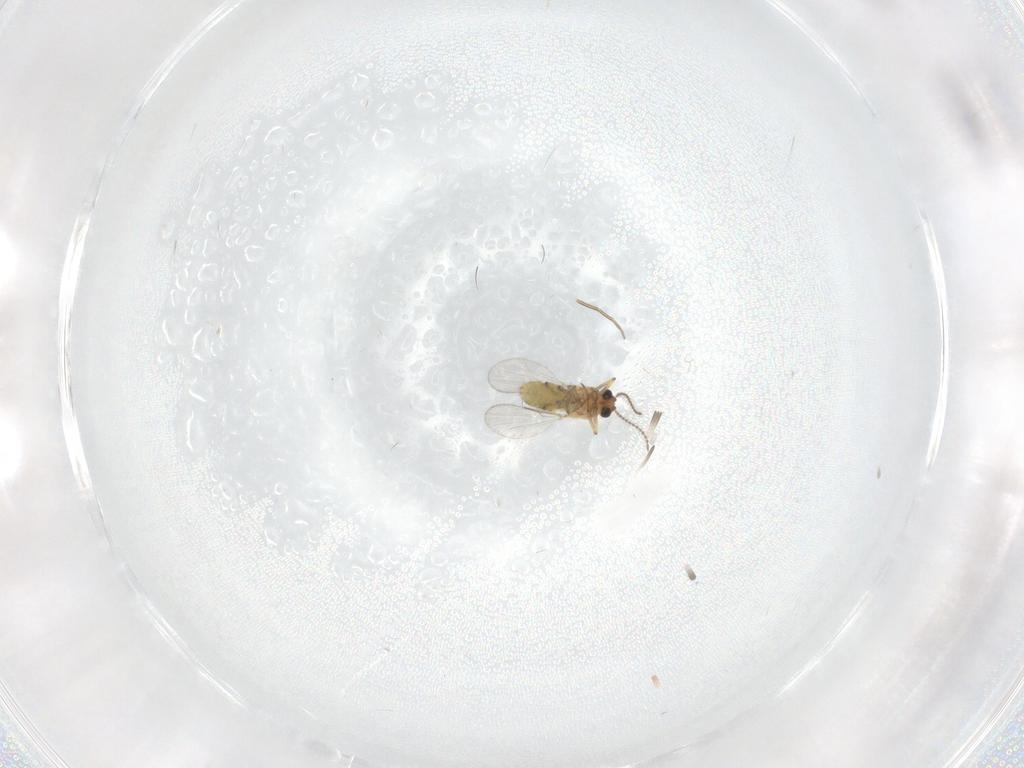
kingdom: Animalia
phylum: Arthropoda
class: Insecta
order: Diptera
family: Ceratopogonidae
